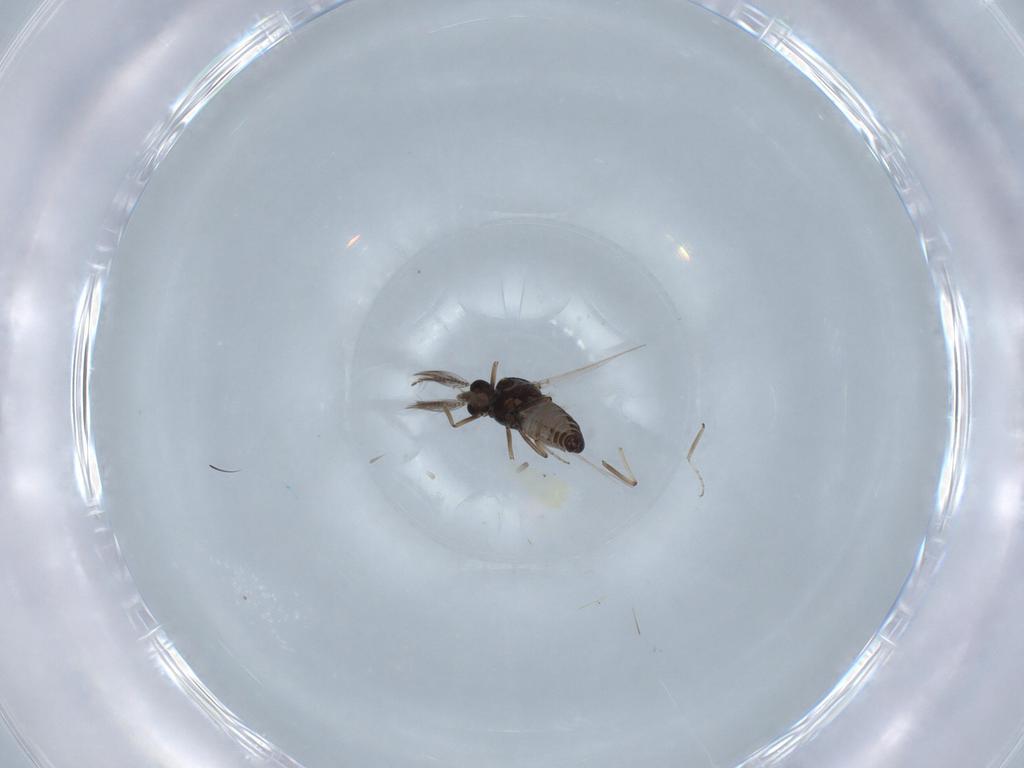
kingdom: Animalia
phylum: Arthropoda
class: Insecta
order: Diptera
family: Ceratopogonidae
